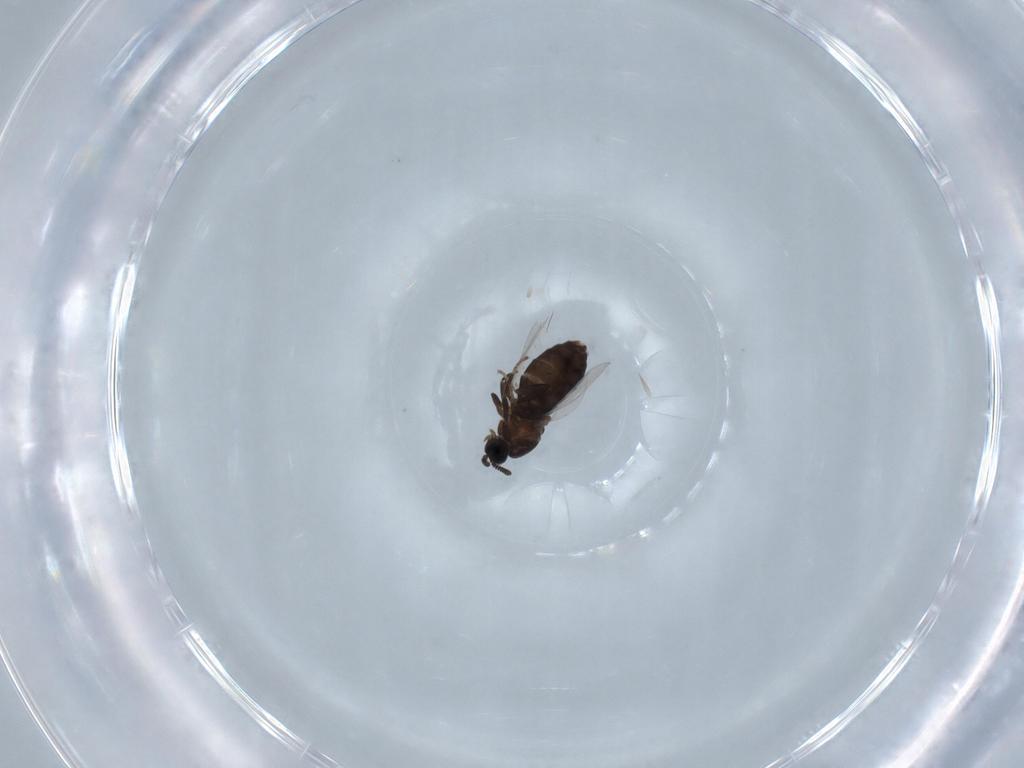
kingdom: Animalia
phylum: Arthropoda
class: Insecta
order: Diptera
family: Scatopsidae
